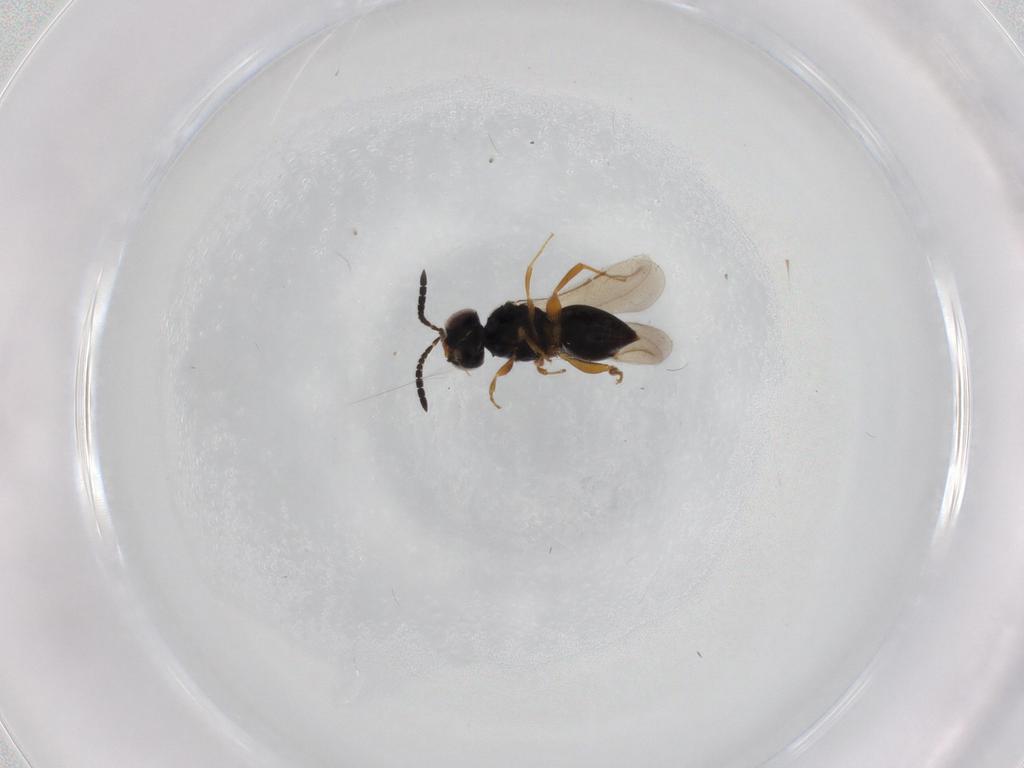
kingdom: Animalia
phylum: Arthropoda
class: Insecta
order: Hymenoptera
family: Diapriidae
